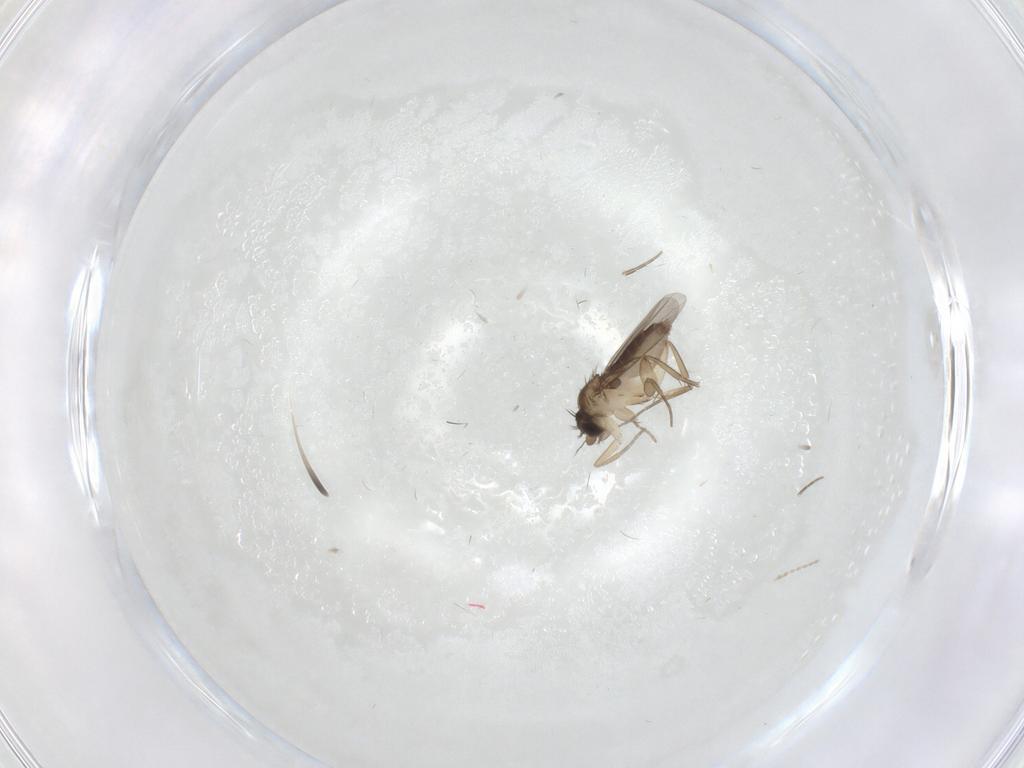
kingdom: Animalia
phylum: Arthropoda
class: Insecta
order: Diptera
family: Phoridae
